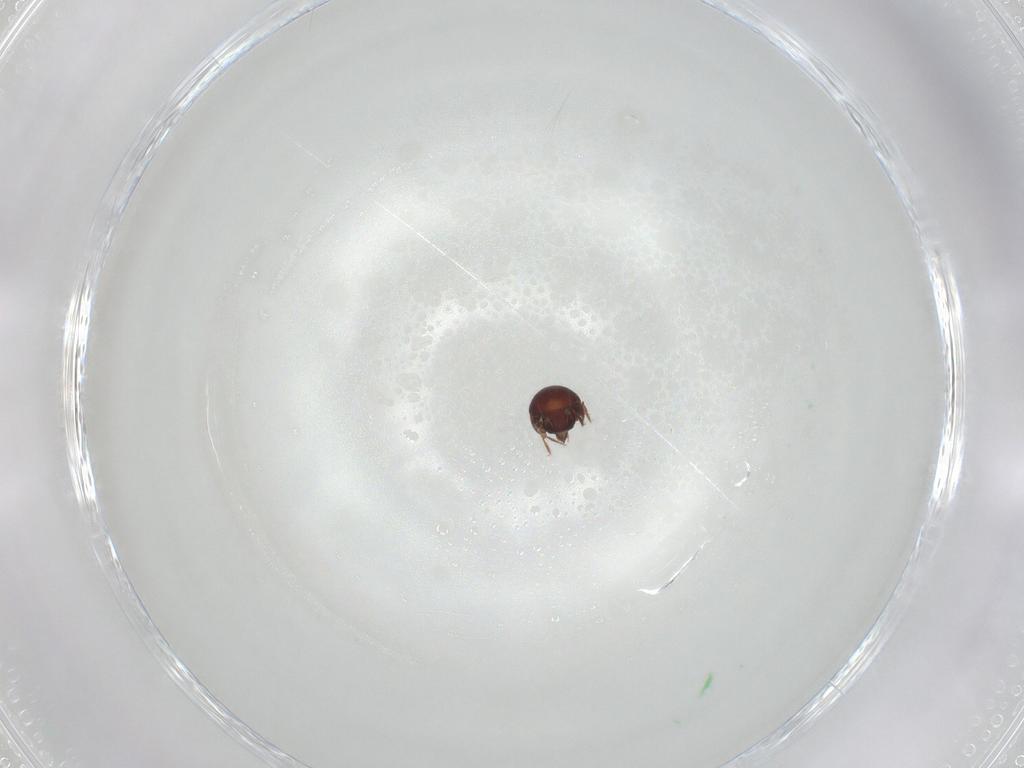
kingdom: Animalia
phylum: Arthropoda
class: Arachnida
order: Sarcoptiformes
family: Humerobatidae
